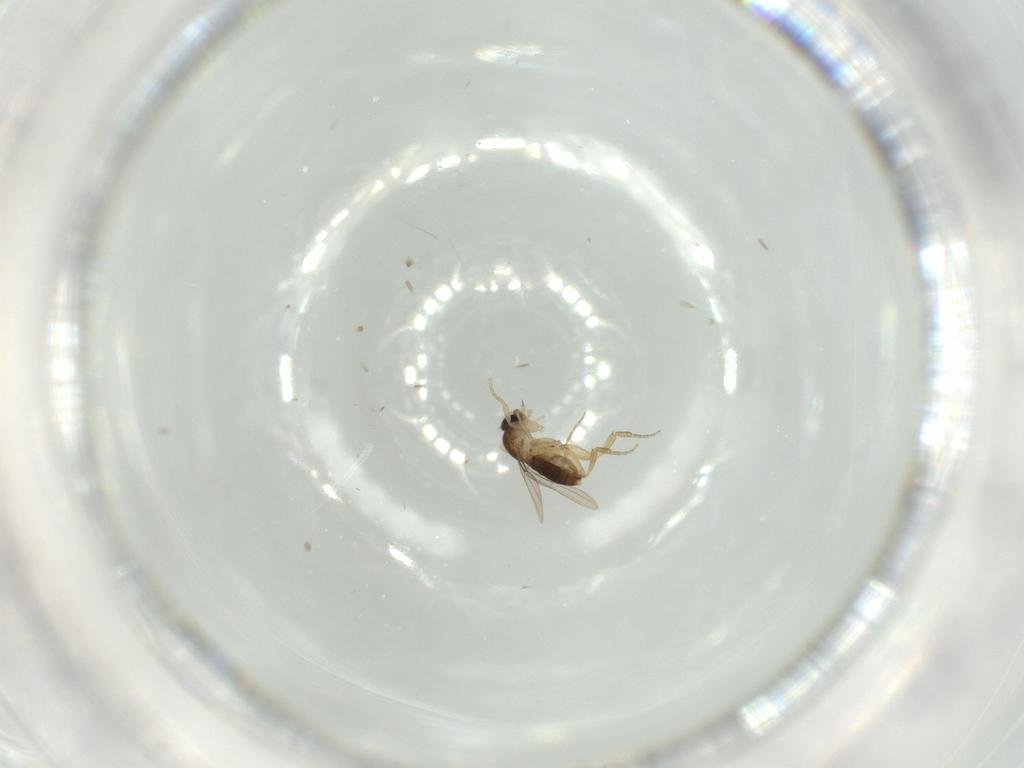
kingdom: Animalia
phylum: Arthropoda
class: Insecta
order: Diptera
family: Phoridae
